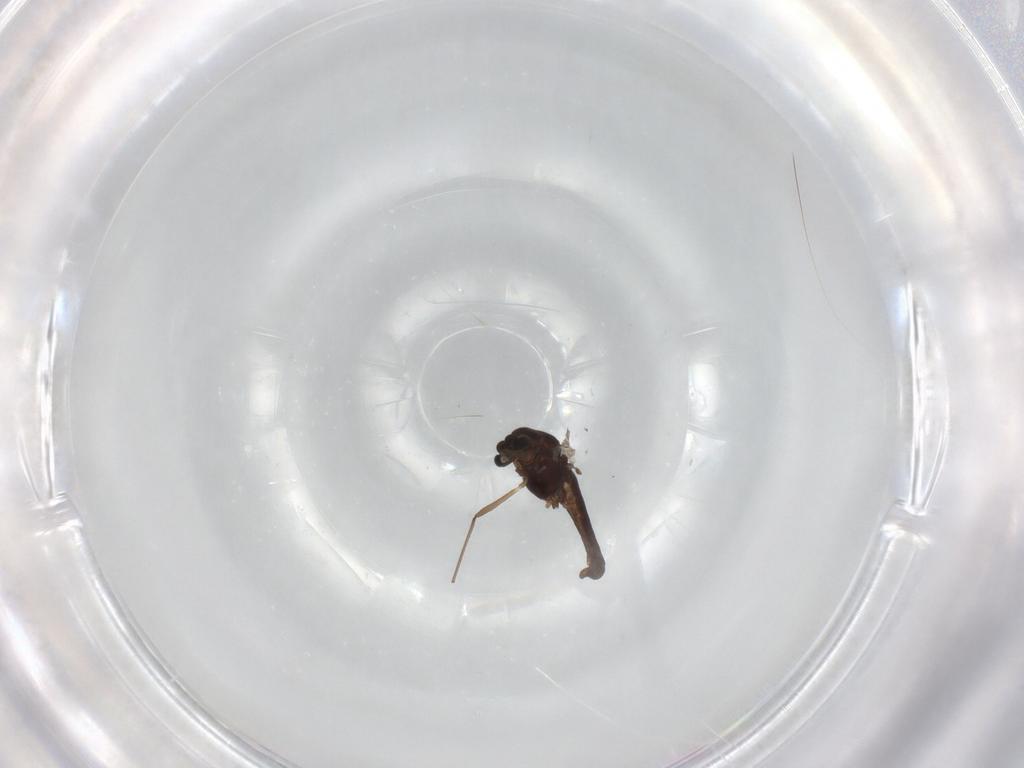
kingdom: Animalia
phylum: Arthropoda
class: Insecta
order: Diptera
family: Chironomidae
